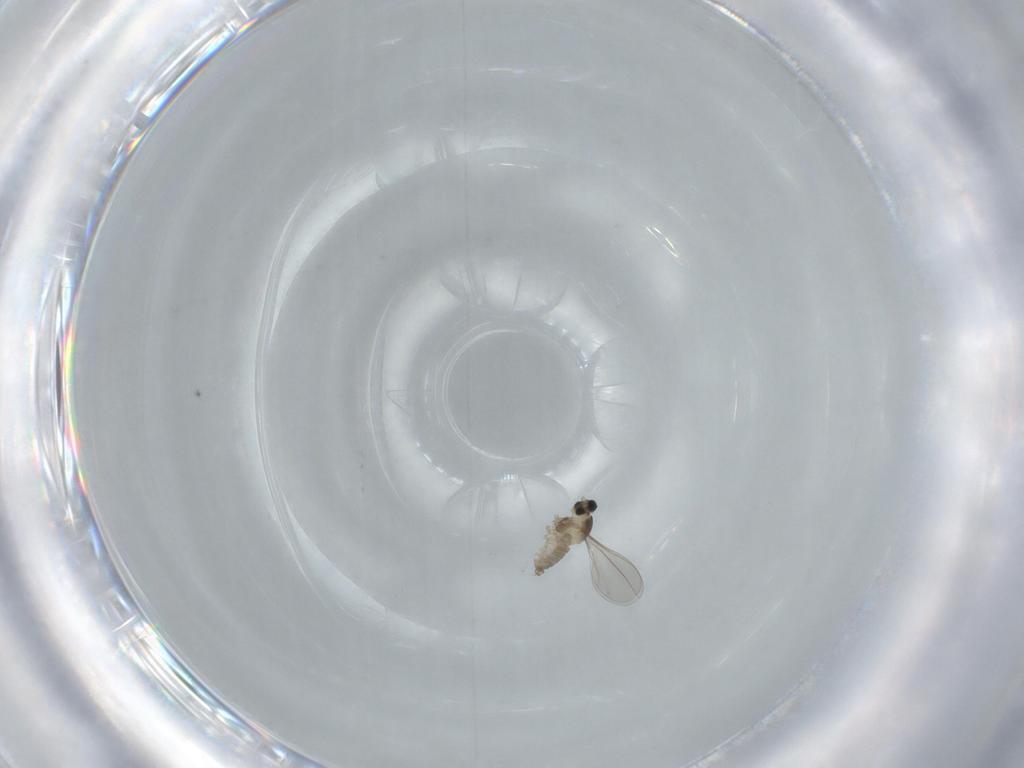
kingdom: Animalia
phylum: Arthropoda
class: Insecta
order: Diptera
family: Cecidomyiidae
